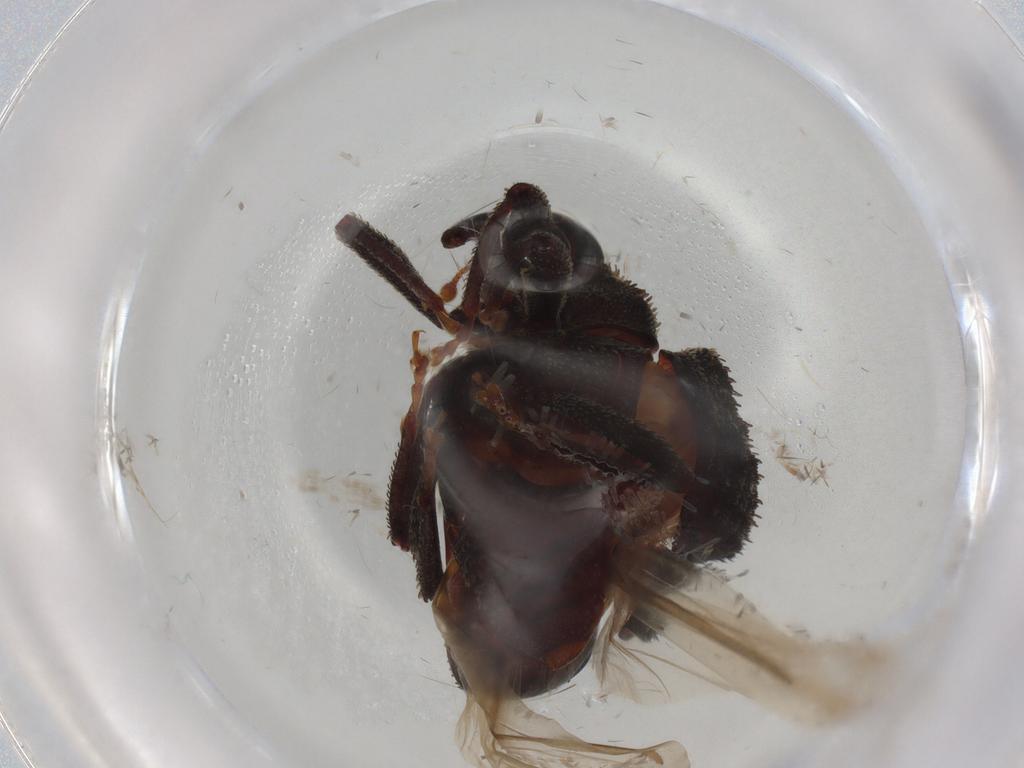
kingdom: Animalia
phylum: Arthropoda
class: Insecta
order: Coleoptera
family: Curculionidae
